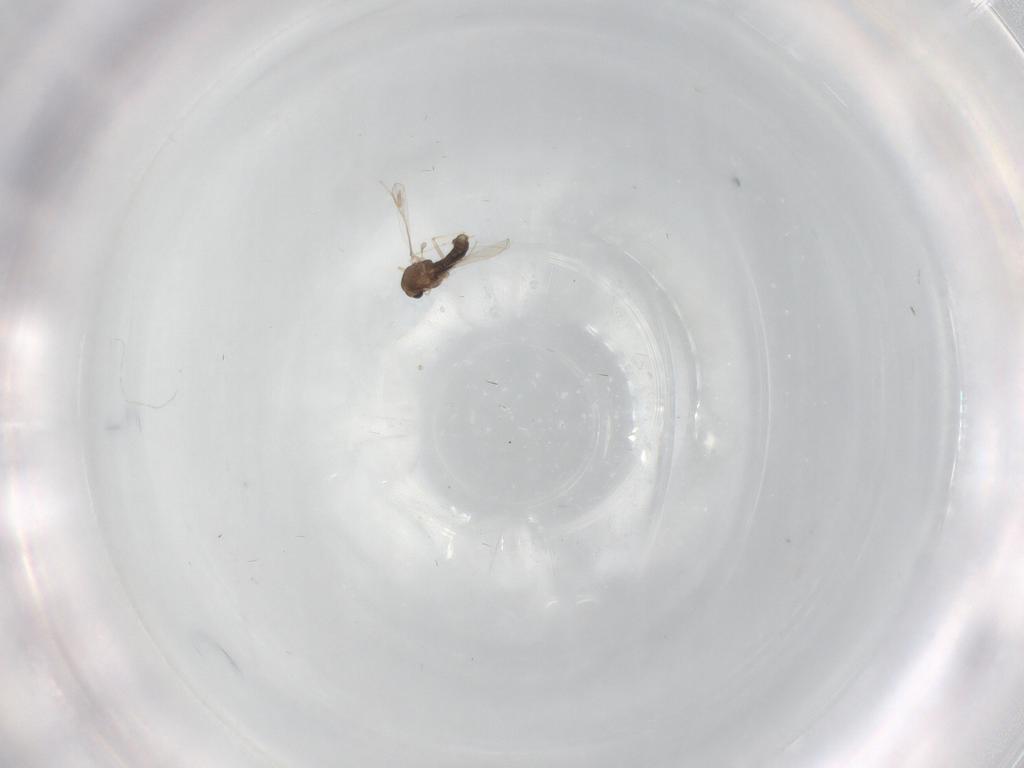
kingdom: Animalia
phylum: Arthropoda
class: Insecta
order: Diptera
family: Chironomidae
